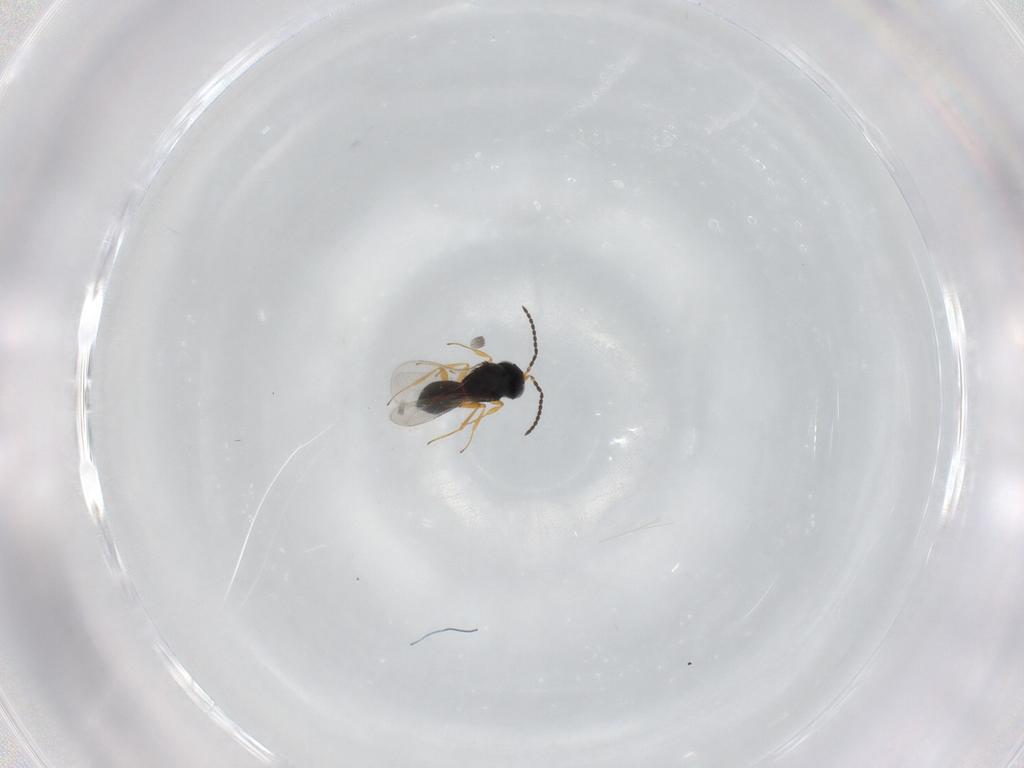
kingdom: Animalia
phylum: Arthropoda
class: Insecta
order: Hymenoptera
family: Scelionidae
